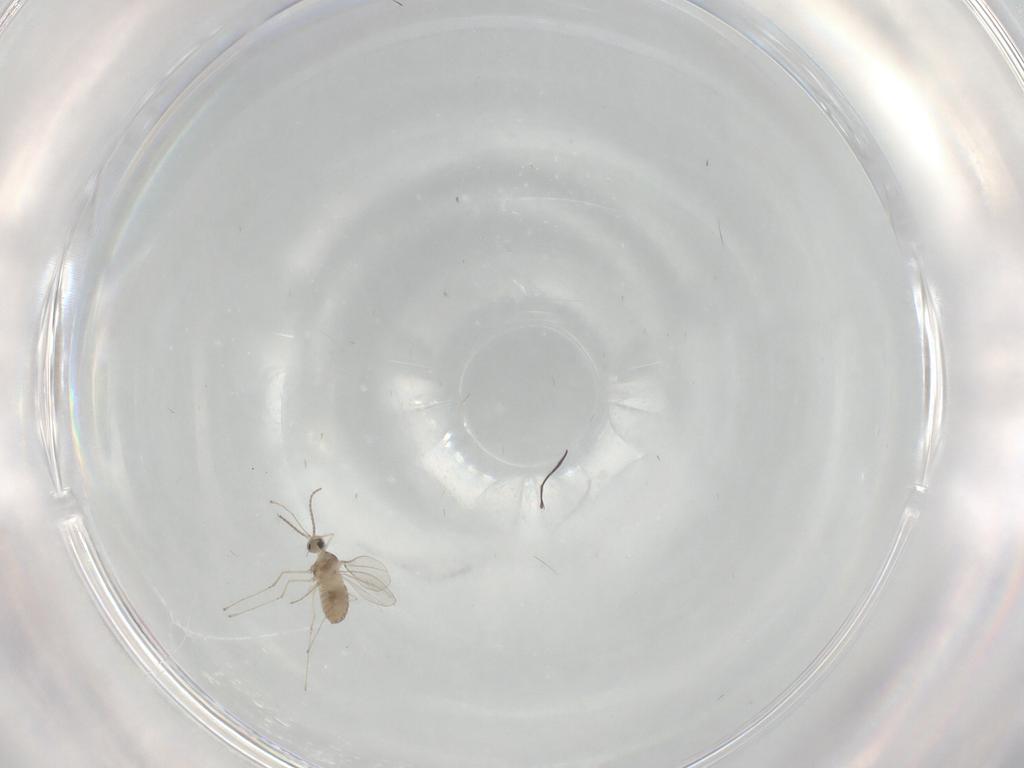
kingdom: Animalia
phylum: Arthropoda
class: Insecta
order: Diptera
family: Cecidomyiidae
